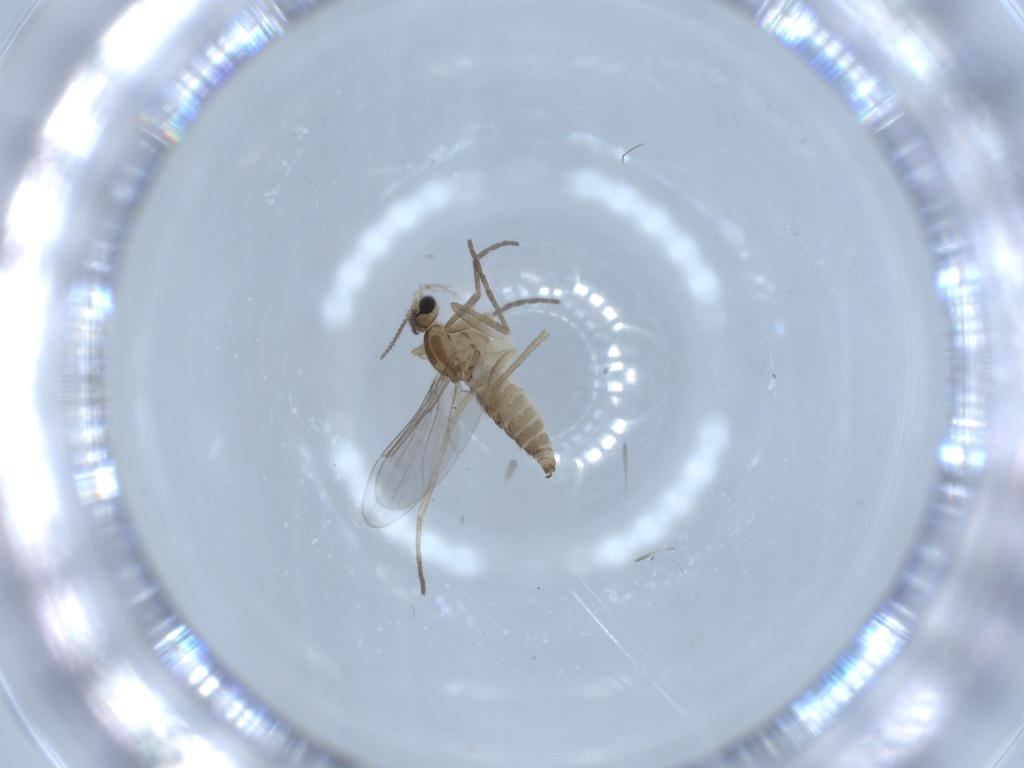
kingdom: Animalia
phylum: Arthropoda
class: Insecta
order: Diptera
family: Cecidomyiidae
